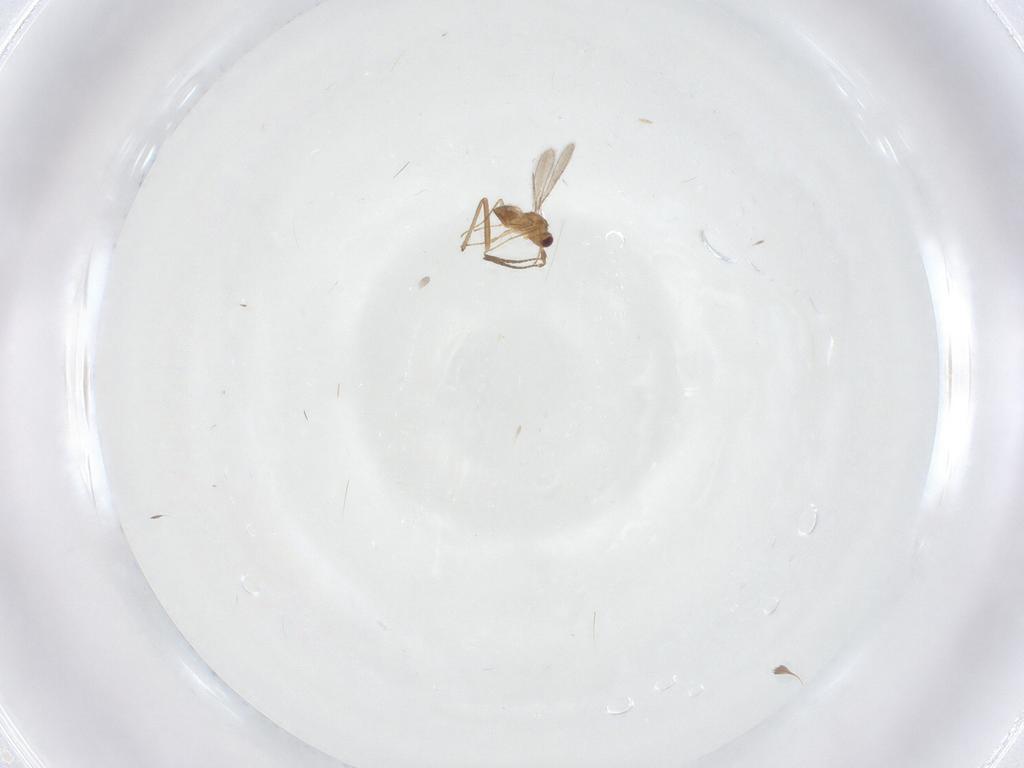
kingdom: Animalia
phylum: Arthropoda
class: Insecta
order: Hymenoptera
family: Mymaridae
